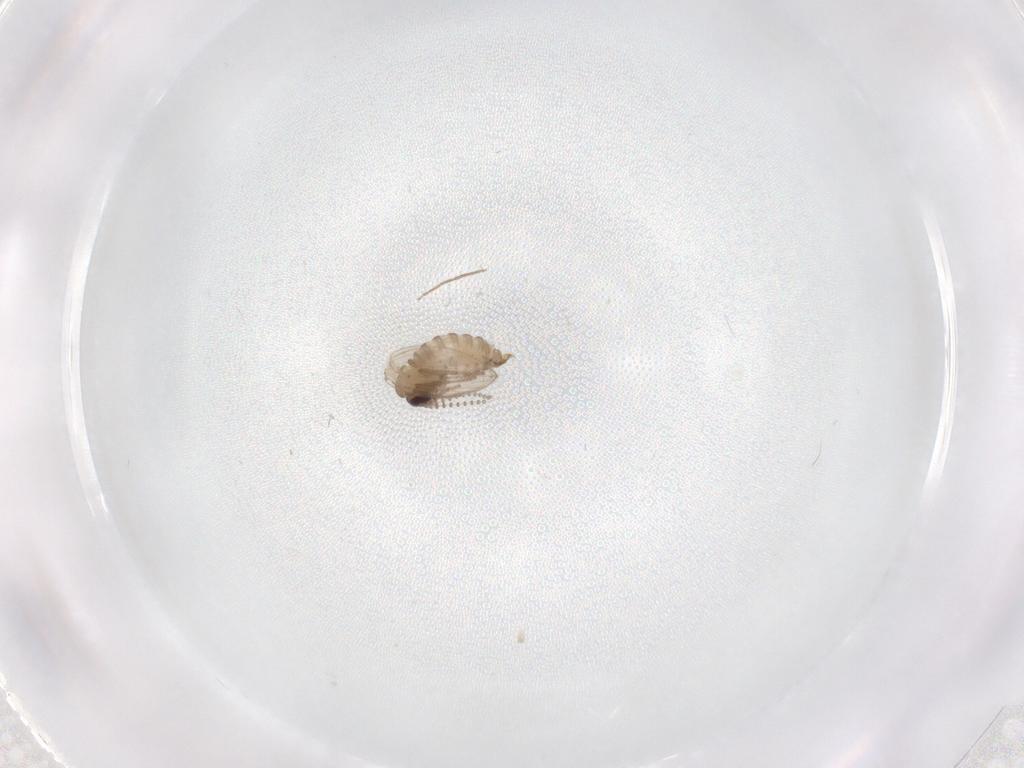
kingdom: Animalia
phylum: Arthropoda
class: Insecta
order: Diptera
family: Psychodidae
